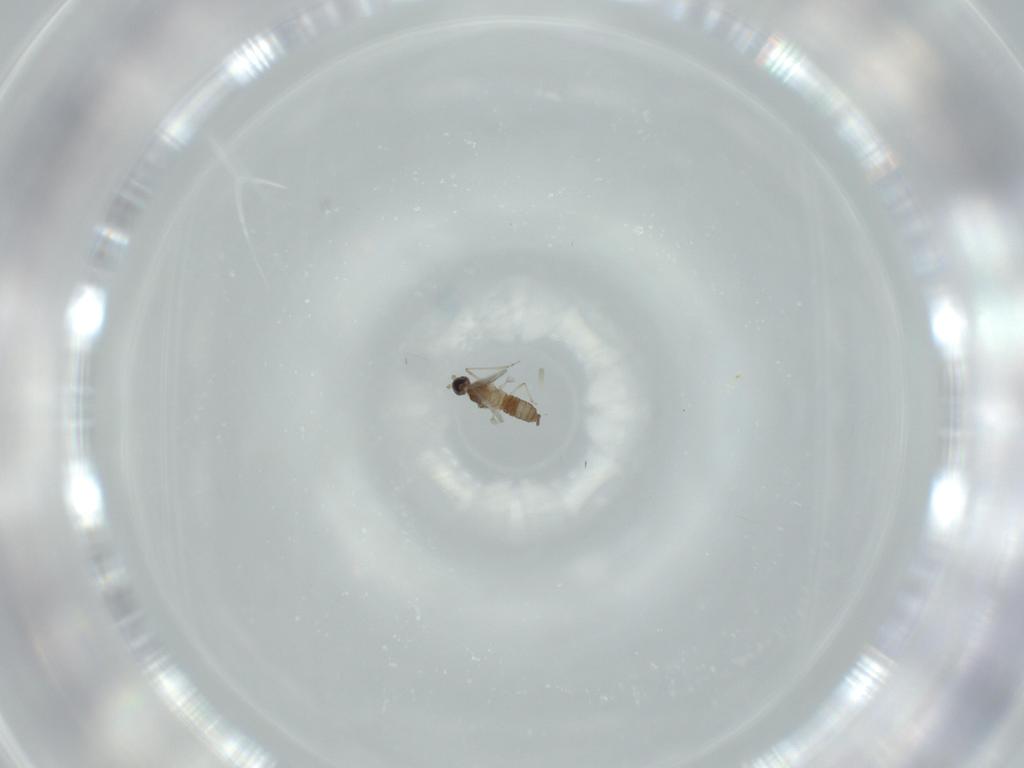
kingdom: Animalia
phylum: Arthropoda
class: Insecta
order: Diptera
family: Cecidomyiidae
